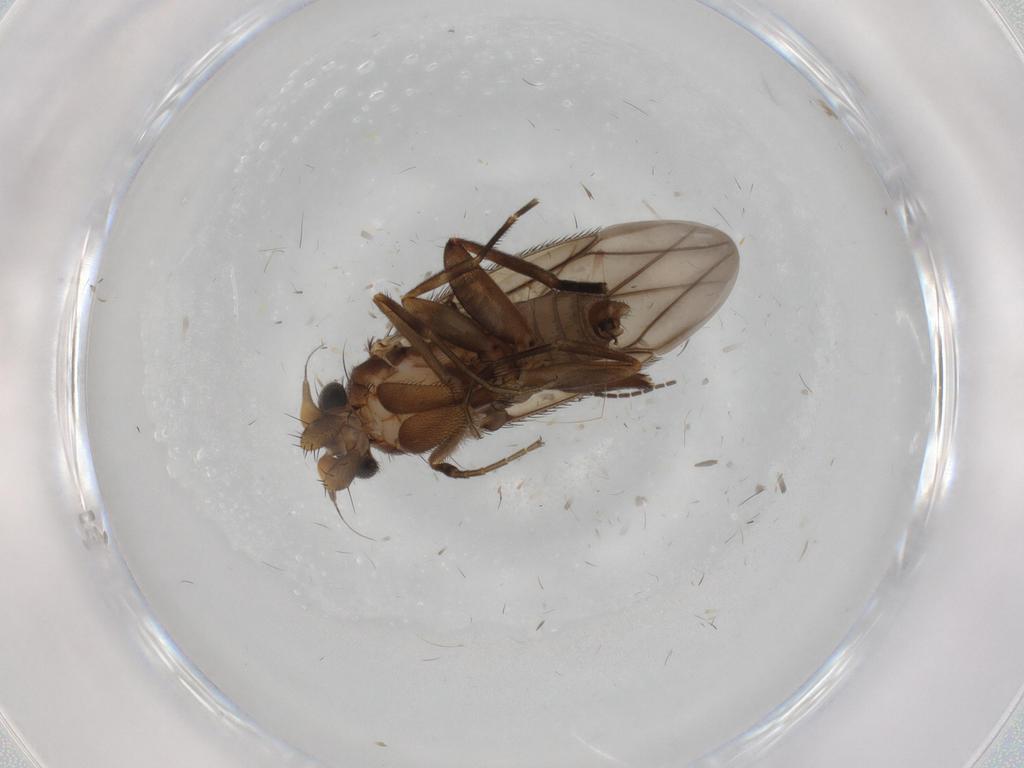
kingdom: Animalia
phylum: Arthropoda
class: Insecta
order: Diptera
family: Phoridae
